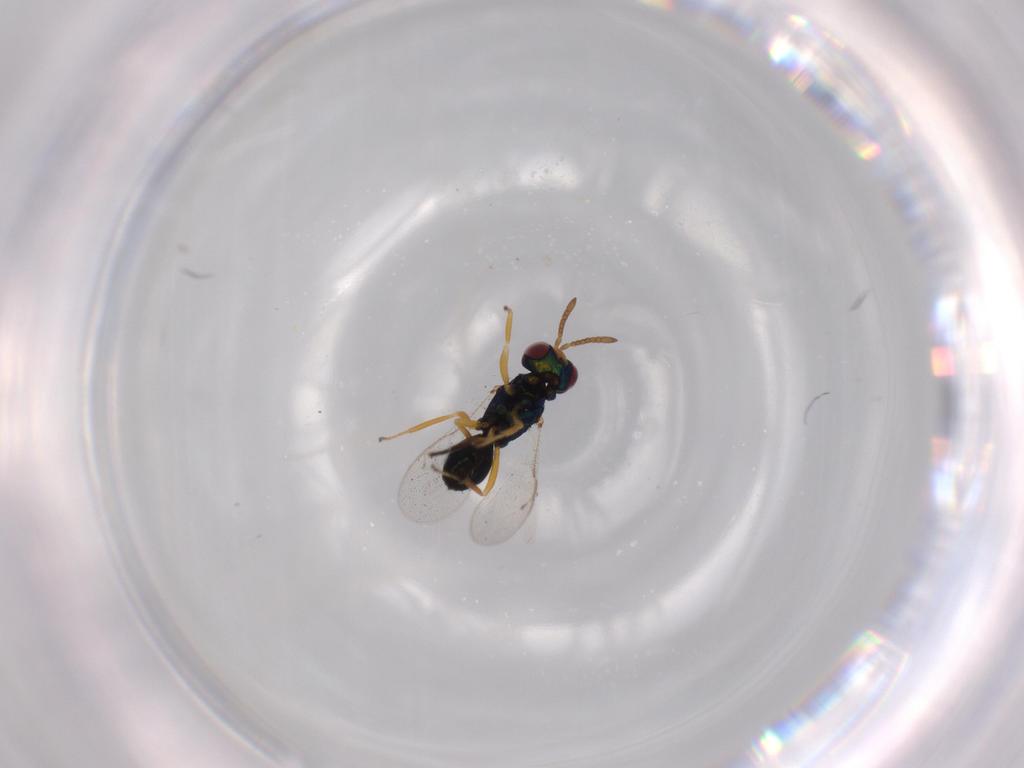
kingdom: Animalia
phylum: Arthropoda
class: Insecta
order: Hymenoptera
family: Pteromalidae
